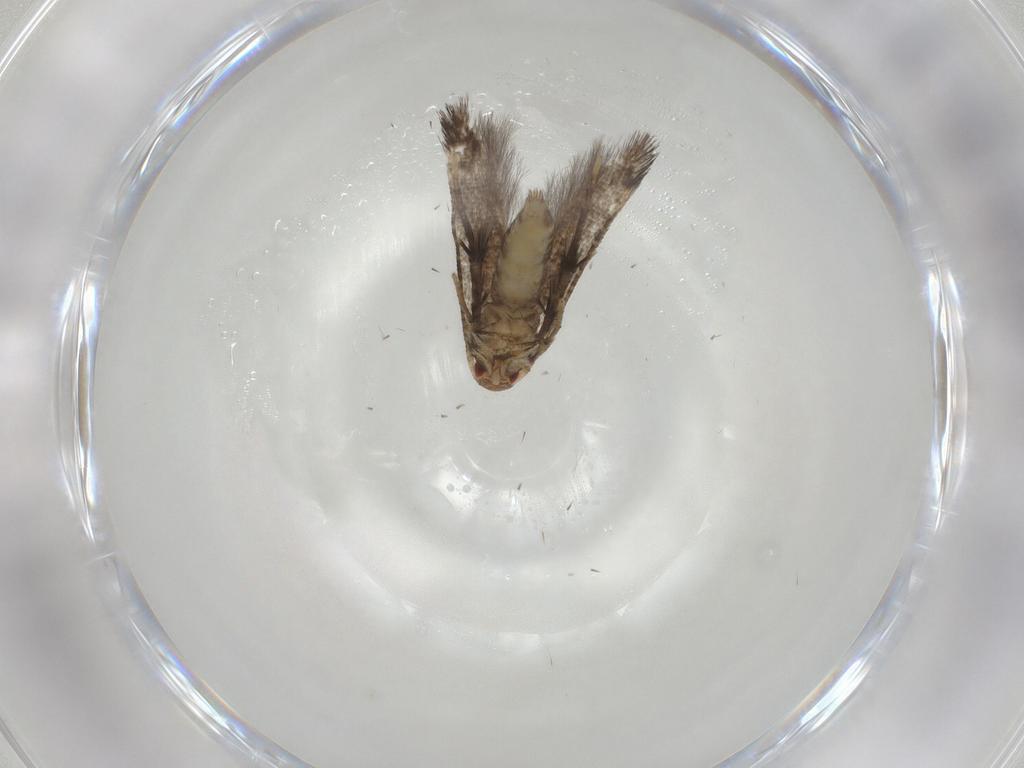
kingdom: Animalia
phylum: Arthropoda
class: Insecta
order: Lepidoptera
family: Momphidae
